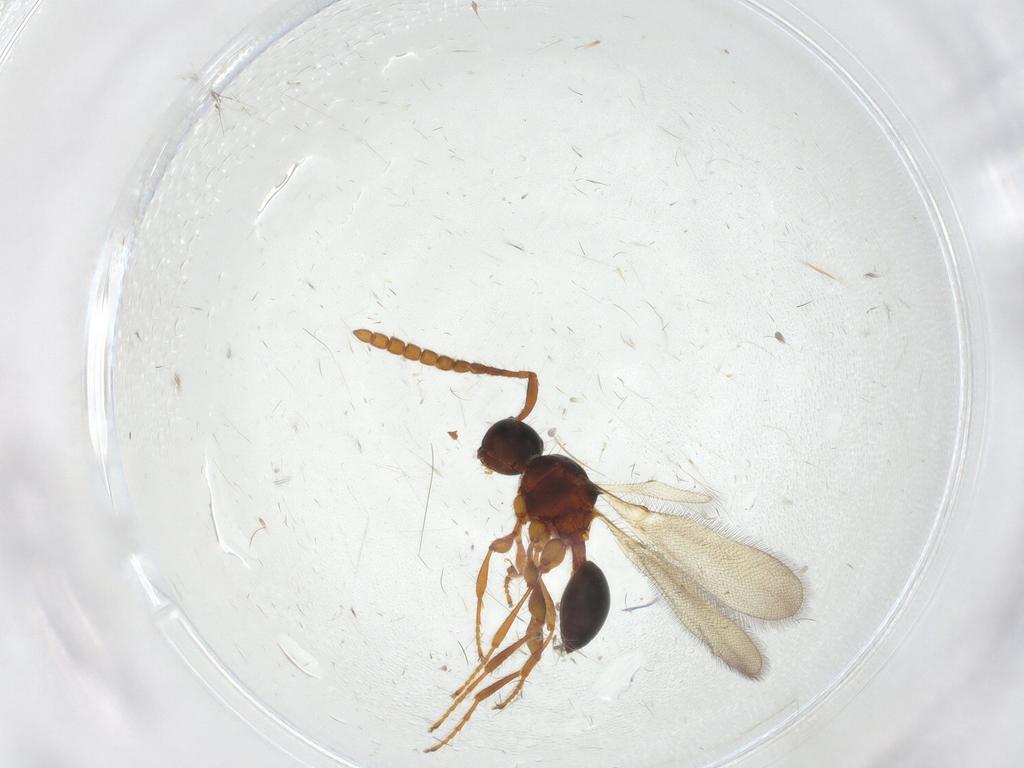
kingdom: Animalia
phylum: Arthropoda
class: Insecta
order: Hymenoptera
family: Diapriidae
